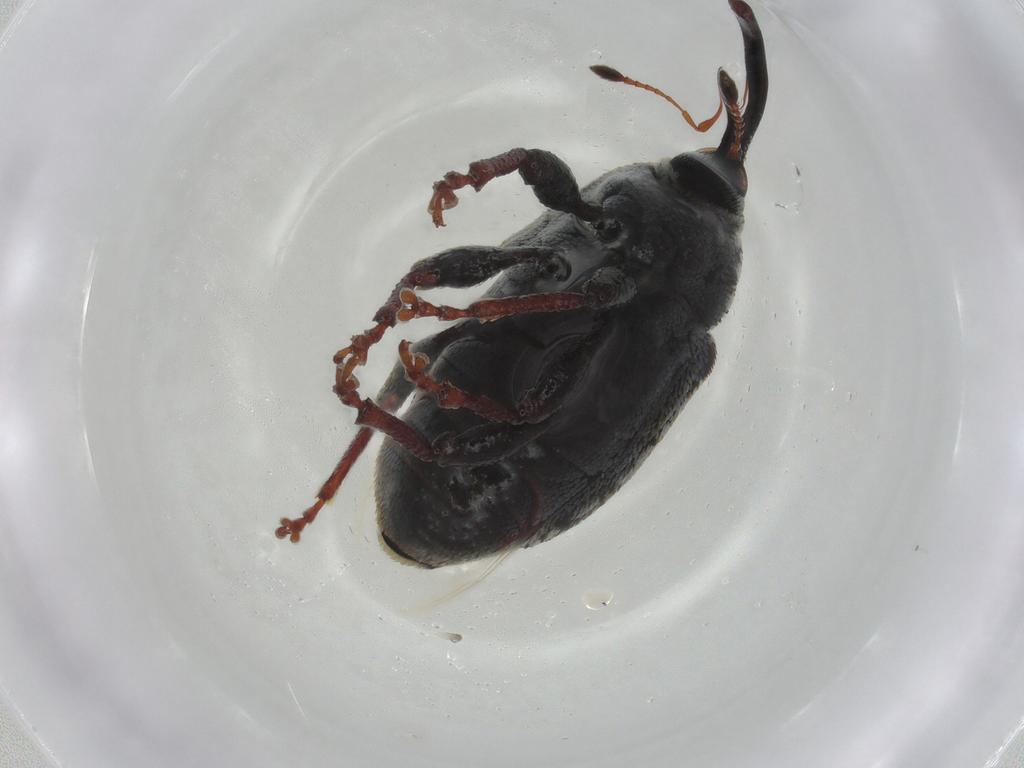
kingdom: Animalia
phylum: Arthropoda
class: Insecta
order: Coleoptera
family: Curculionidae
